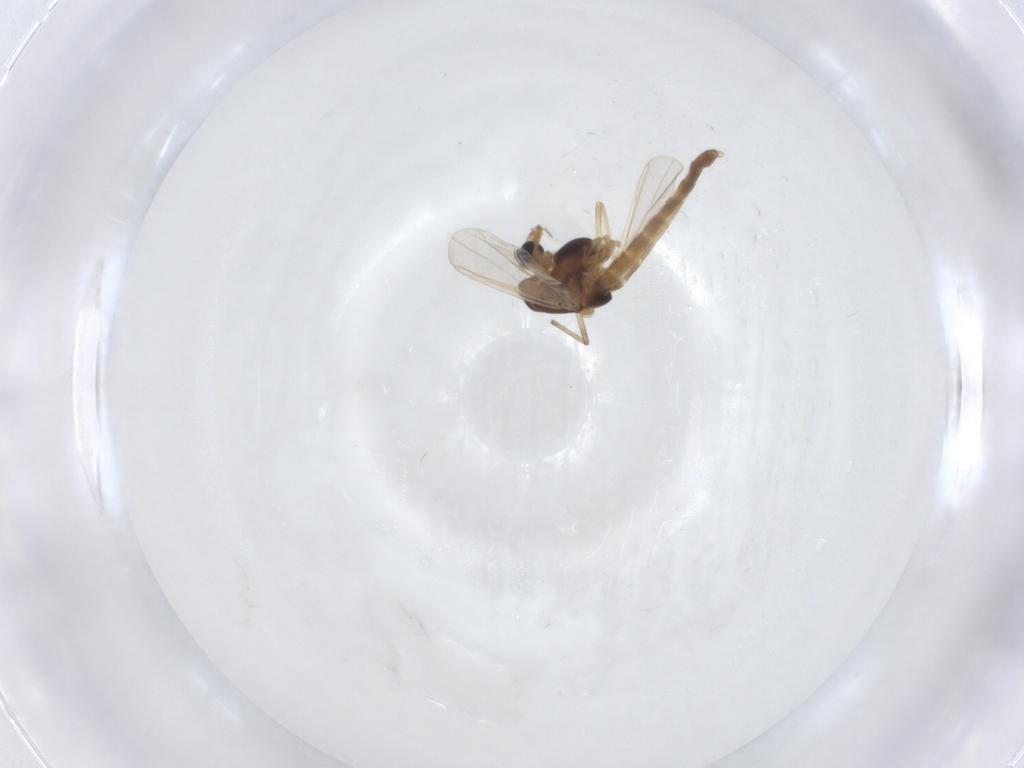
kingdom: Animalia
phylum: Arthropoda
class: Insecta
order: Diptera
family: Chironomidae
